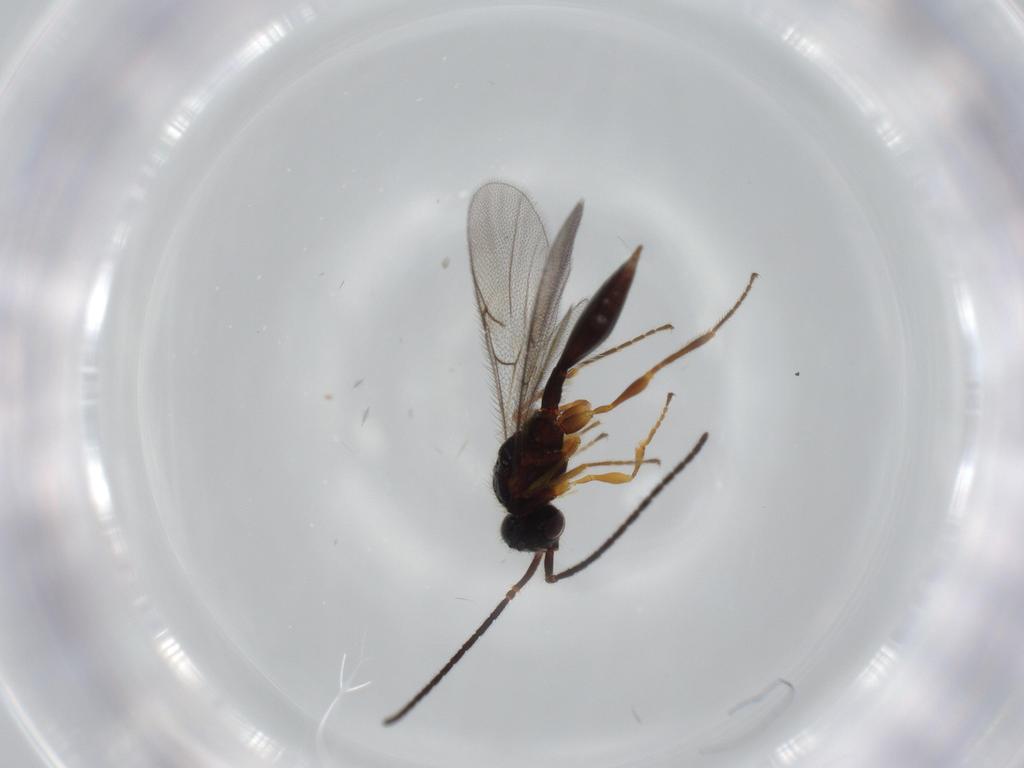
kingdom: Animalia
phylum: Arthropoda
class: Insecta
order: Hymenoptera
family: Diapriidae
